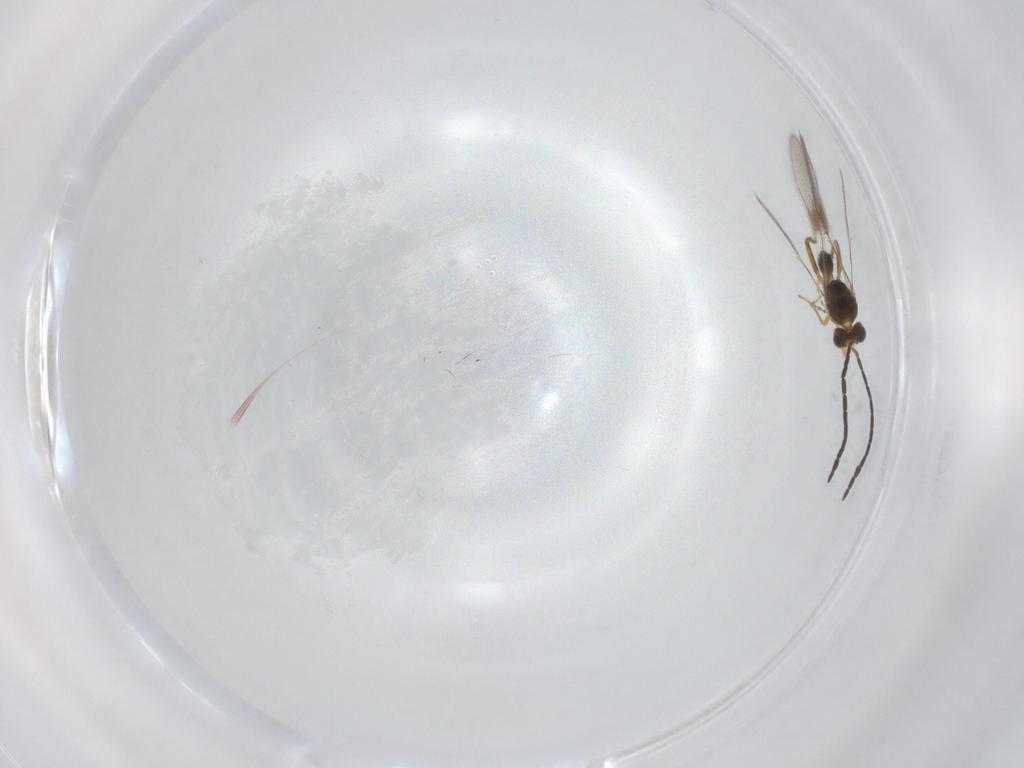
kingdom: Animalia
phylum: Arthropoda
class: Insecta
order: Hymenoptera
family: Mymaridae
